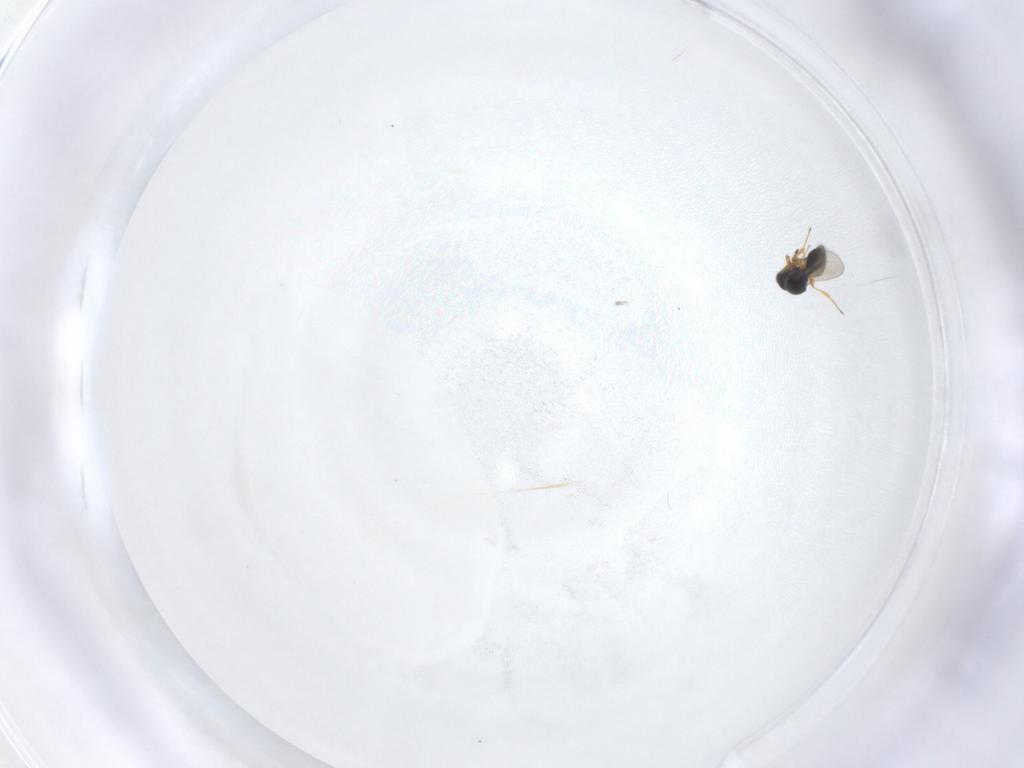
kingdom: Animalia
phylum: Arthropoda
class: Insecta
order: Hymenoptera
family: Platygastridae
